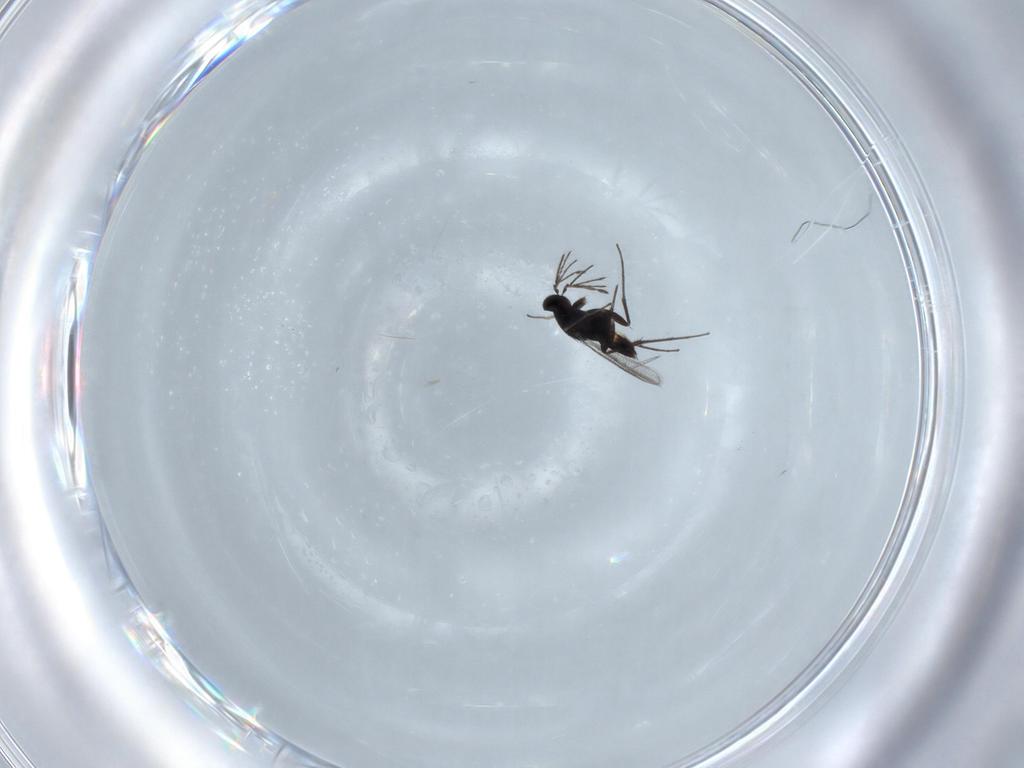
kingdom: Animalia
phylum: Arthropoda
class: Insecta
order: Hymenoptera
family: Eulophidae
